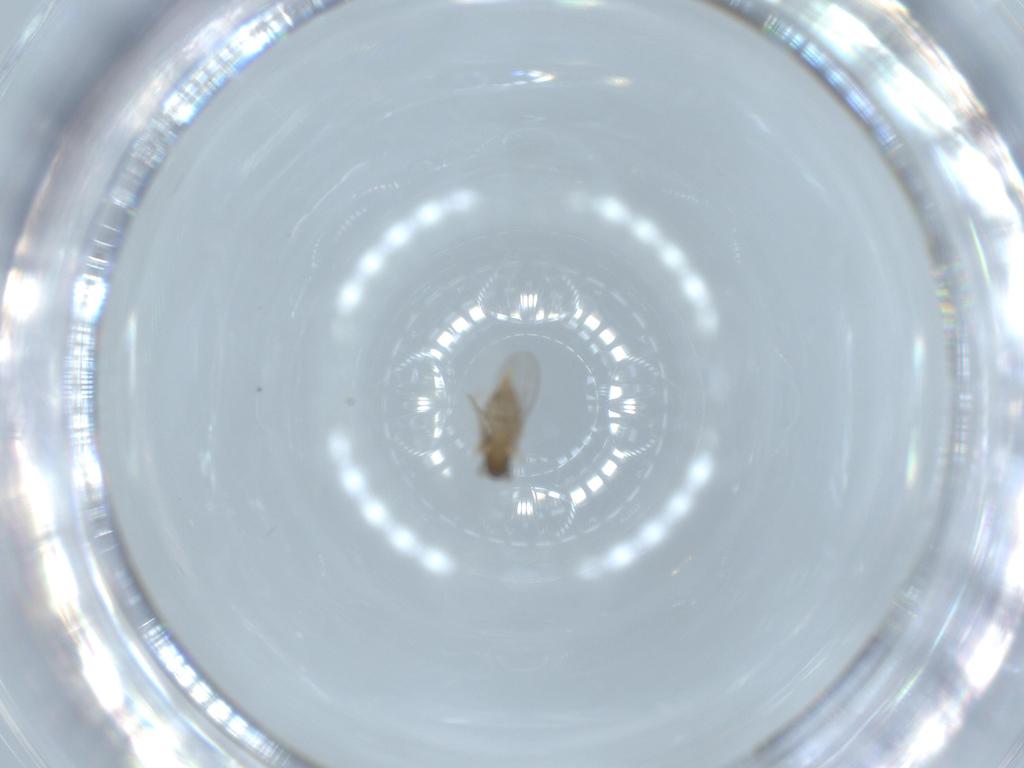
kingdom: Animalia
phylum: Arthropoda
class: Insecta
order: Diptera
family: Cecidomyiidae
